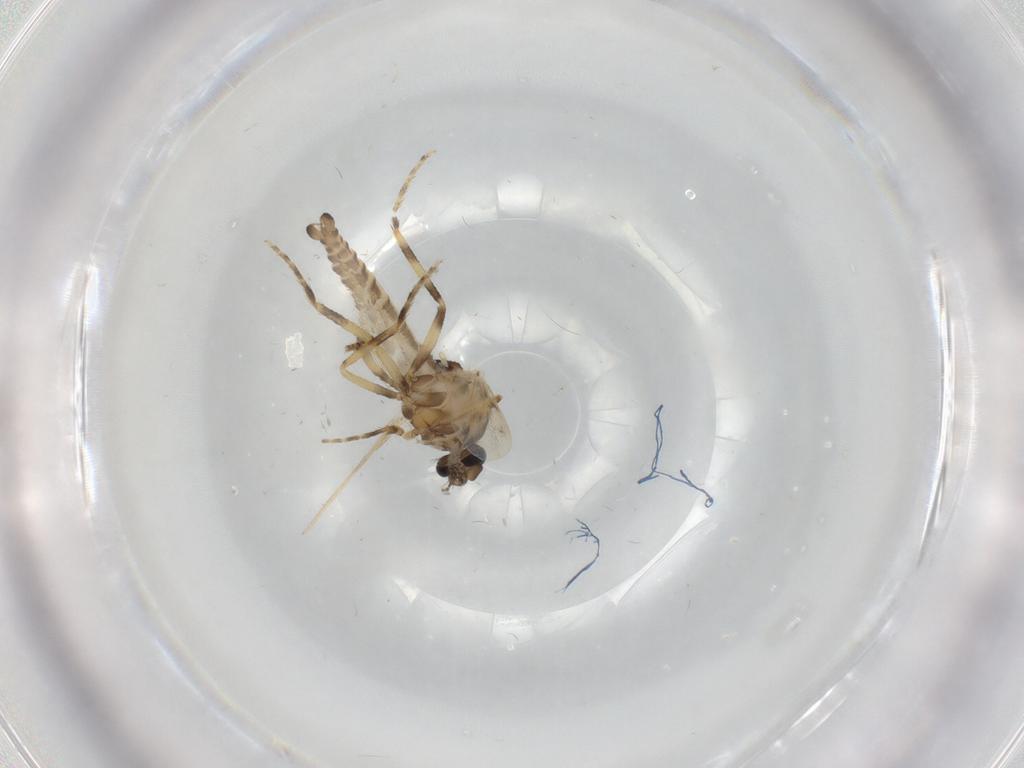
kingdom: Animalia
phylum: Arthropoda
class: Insecta
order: Diptera
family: Ceratopogonidae
